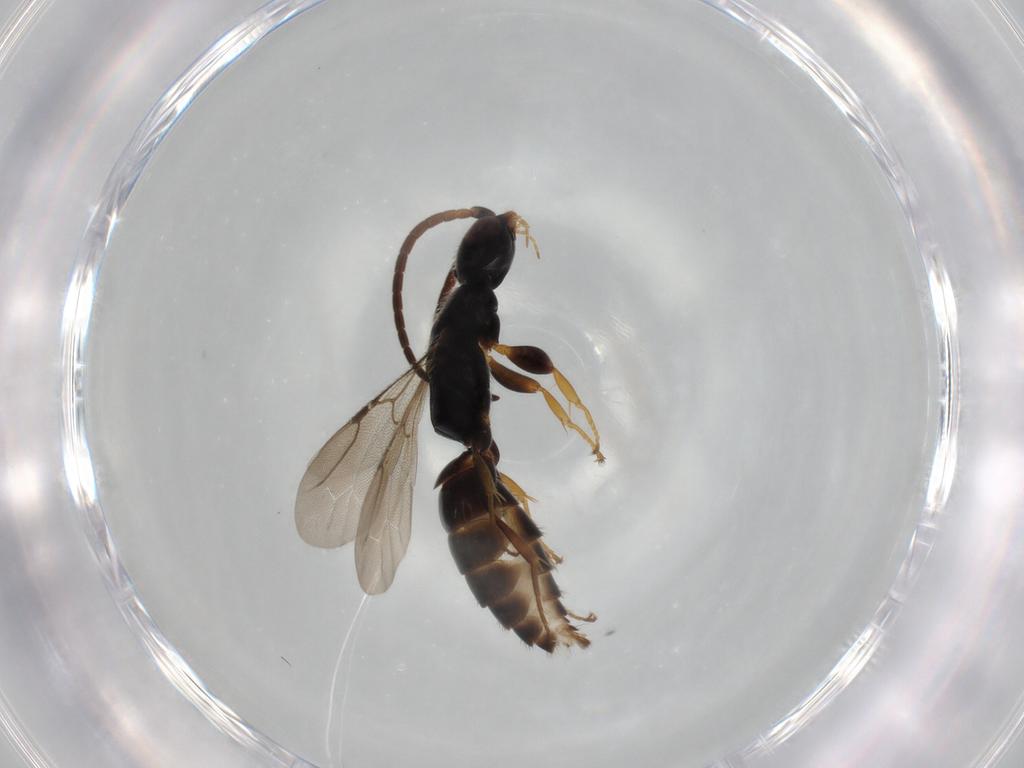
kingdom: Animalia
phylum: Arthropoda
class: Insecta
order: Hymenoptera
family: Bethylidae
